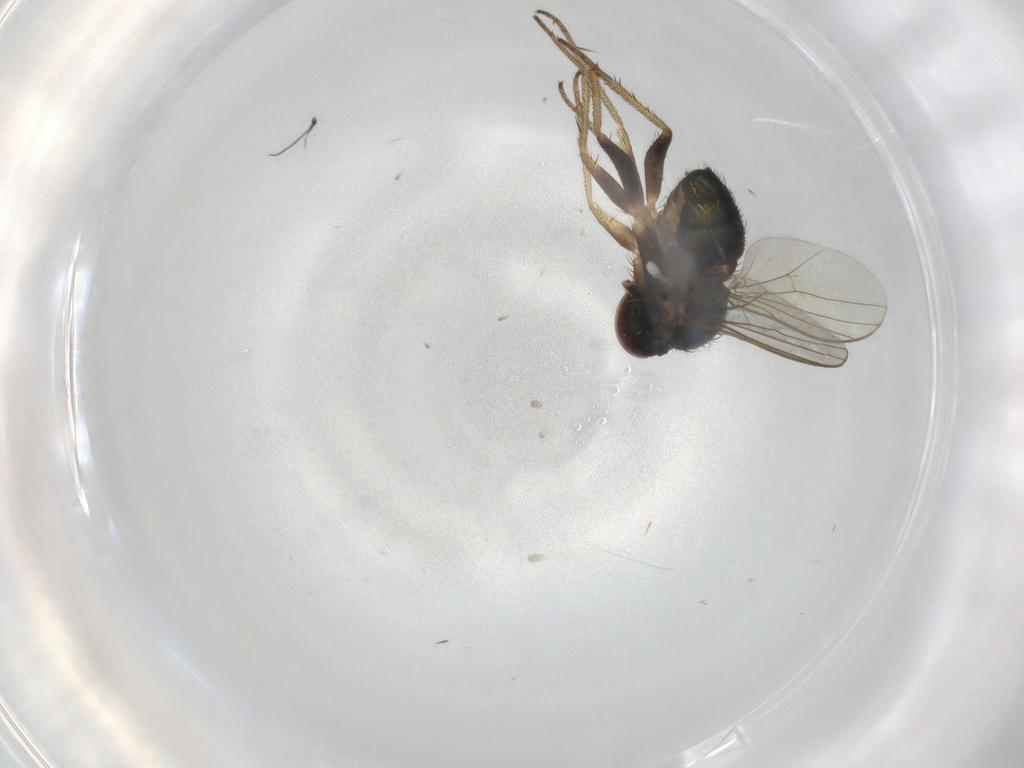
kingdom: Animalia
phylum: Arthropoda
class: Insecta
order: Diptera
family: Dolichopodidae
